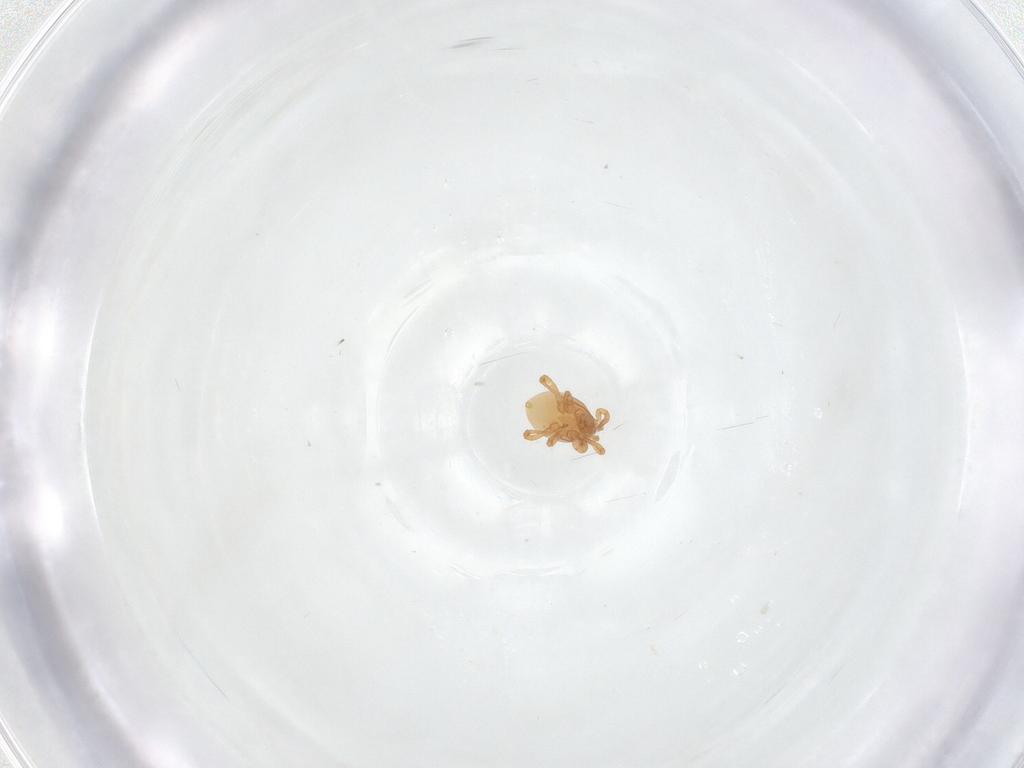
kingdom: Animalia
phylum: Arthropoda
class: Arachnida
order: Mesostigmata
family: Parasitidae
